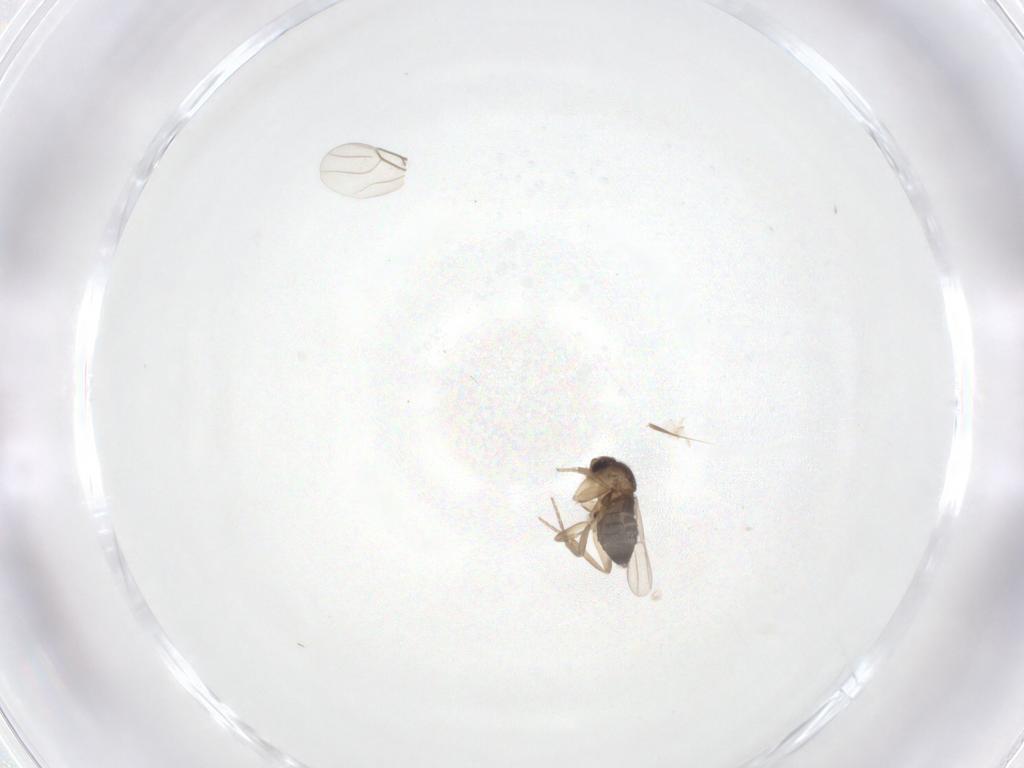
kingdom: Animalia
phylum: Arthropoda
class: Insecta
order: Diptera
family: Phoridae
